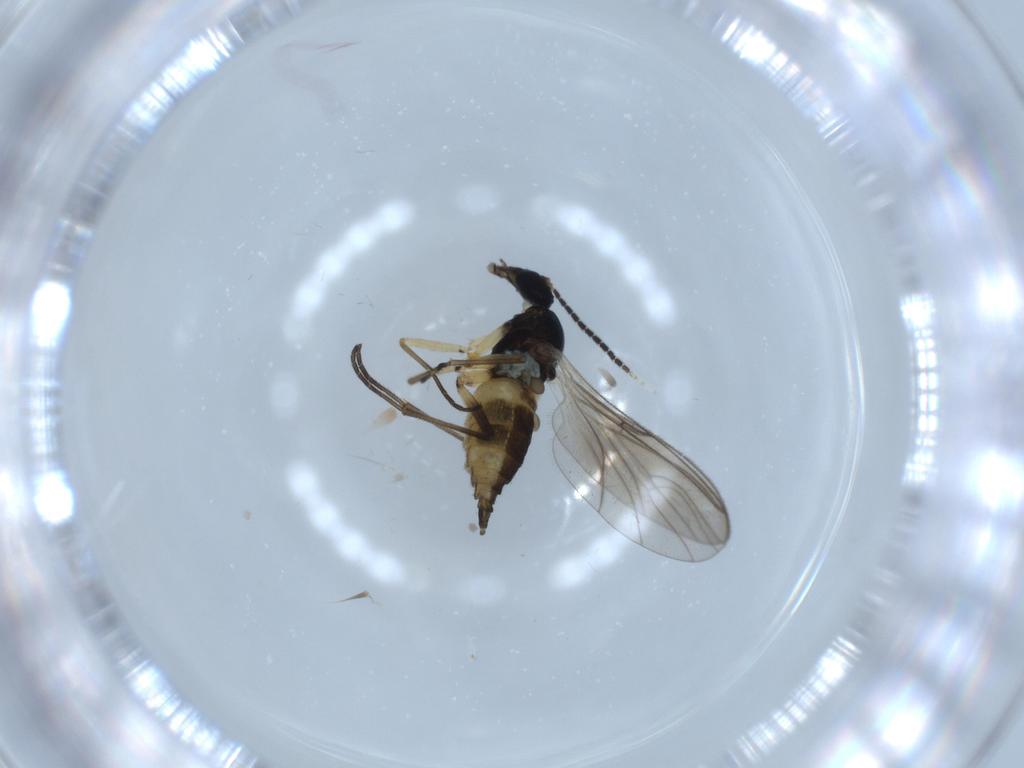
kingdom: Animalia
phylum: Arthropoda
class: Insecta
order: Diptera
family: Sciaridae
